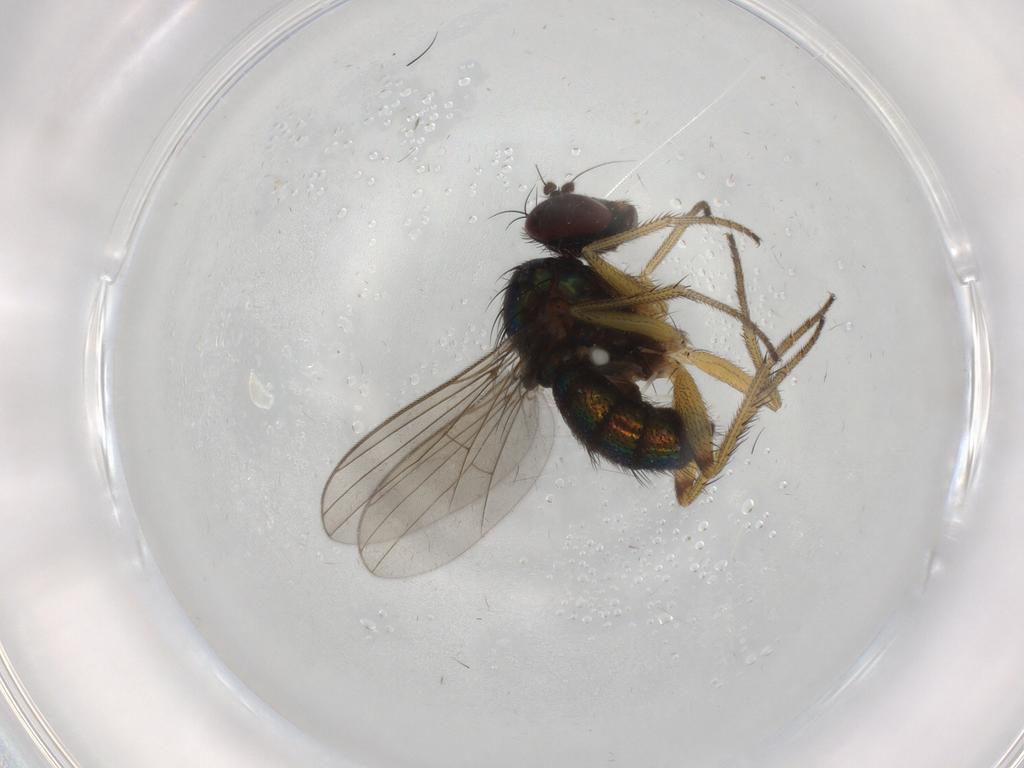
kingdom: Animalia
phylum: Arthropoda
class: Insecta
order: Diptera
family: Dolichopodidae
